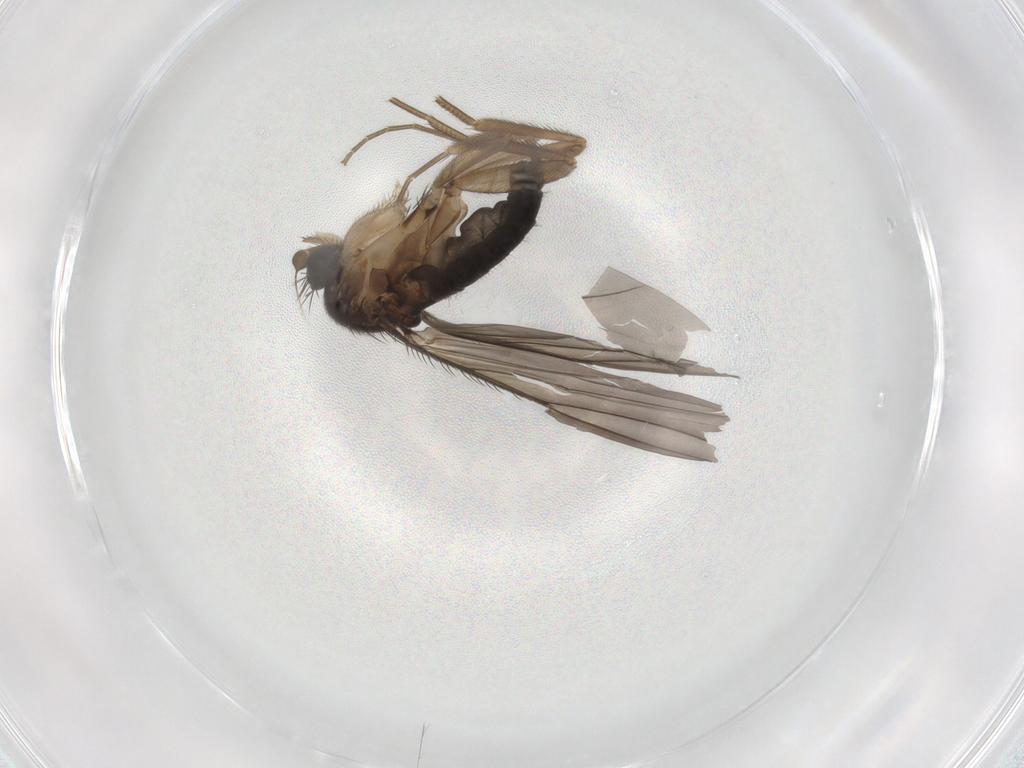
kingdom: Animalia
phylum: Arthropoda
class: Insecta
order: Diptera
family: Phoridae
